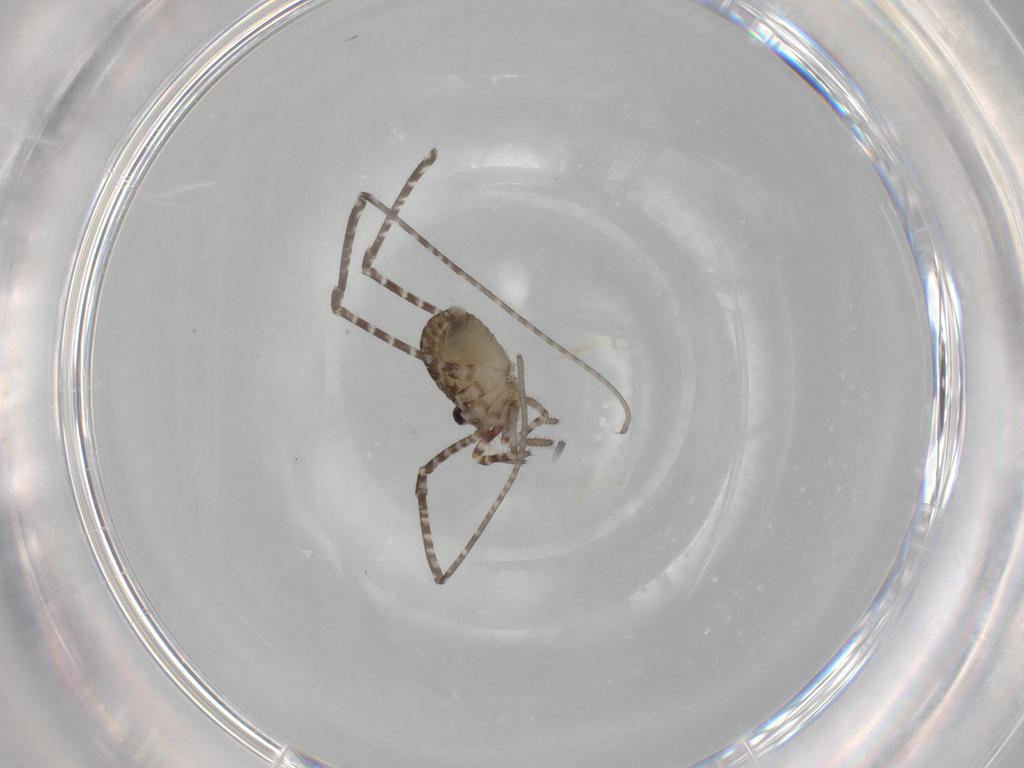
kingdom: Animalia
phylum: Arthropoda
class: Arachnida
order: Opiliones
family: Sclerosomatidae
